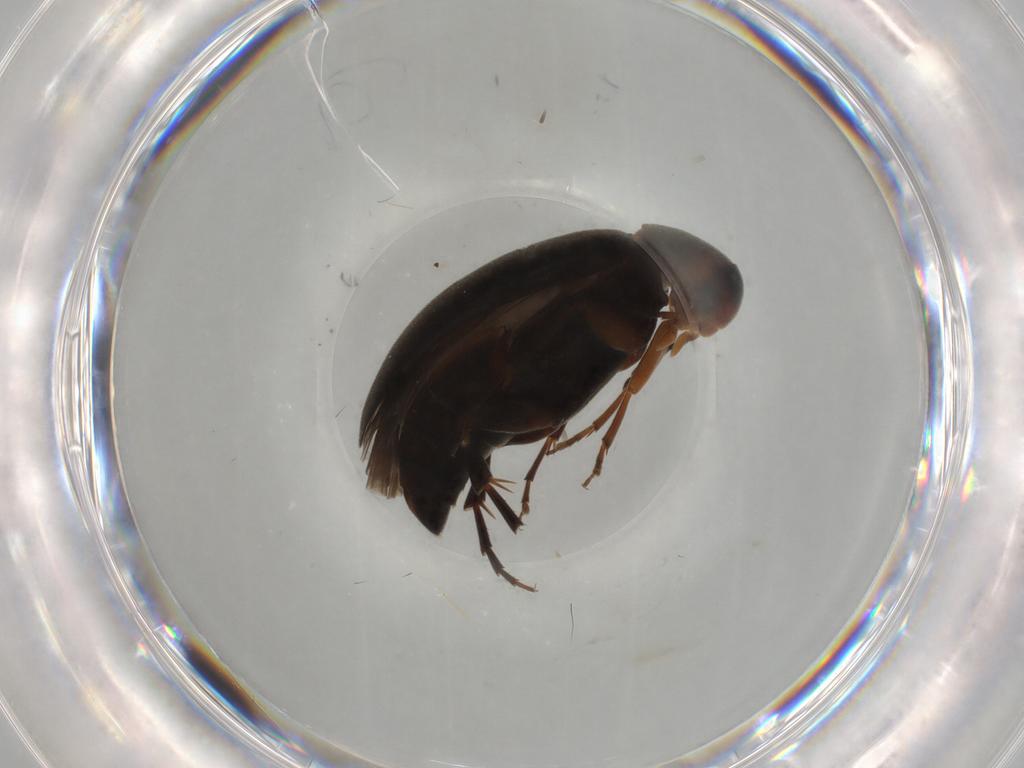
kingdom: Animalia
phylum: Arthropoda
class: Insecta
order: Coleoptera
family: Scraptiidae
